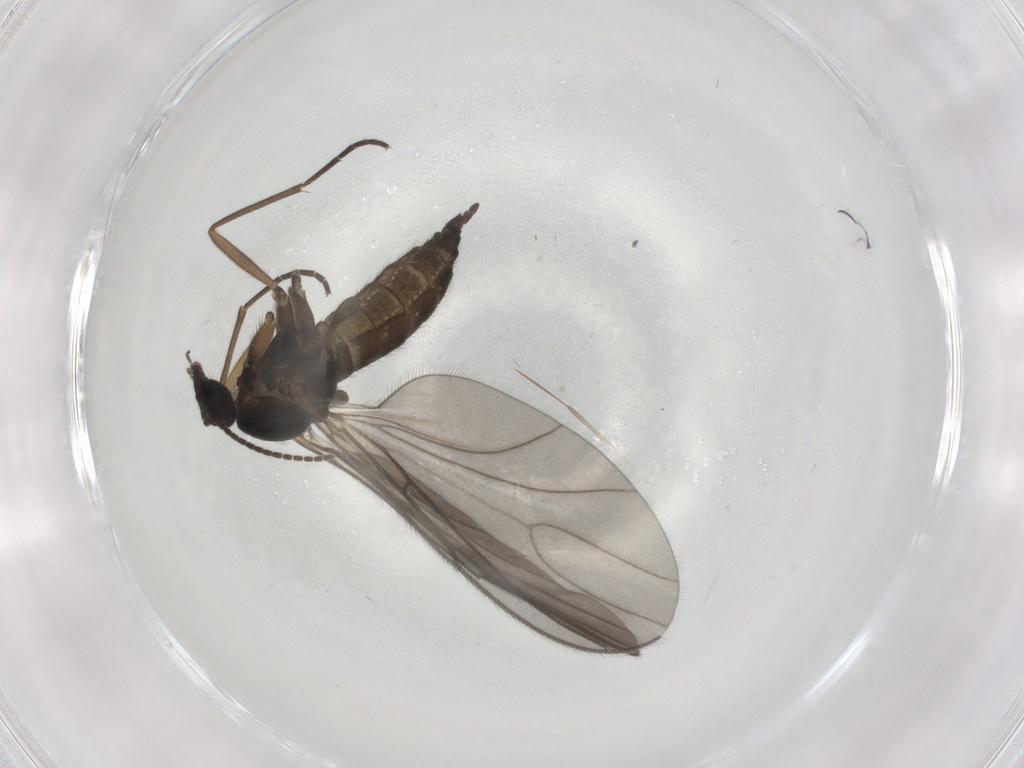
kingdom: Animalia
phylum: Arthropoda
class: Insecta
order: Diptera
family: Sciaridae
